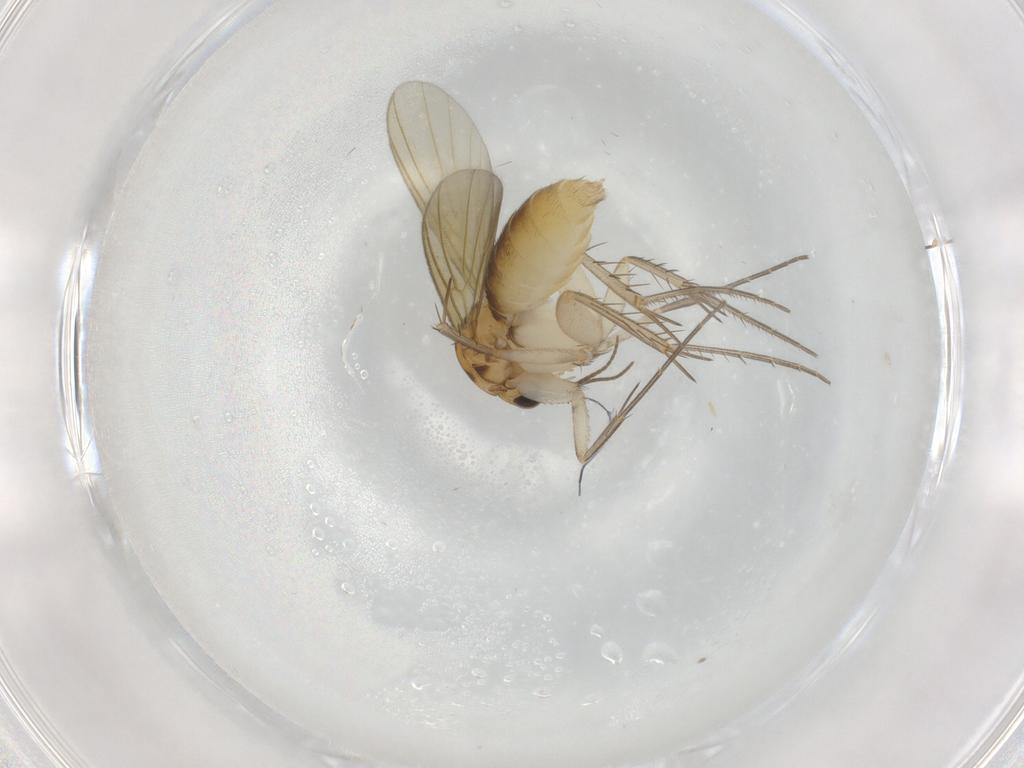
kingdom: Animalia
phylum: Arthropoda
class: Insecta
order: Diptera
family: Mycetophilidae
